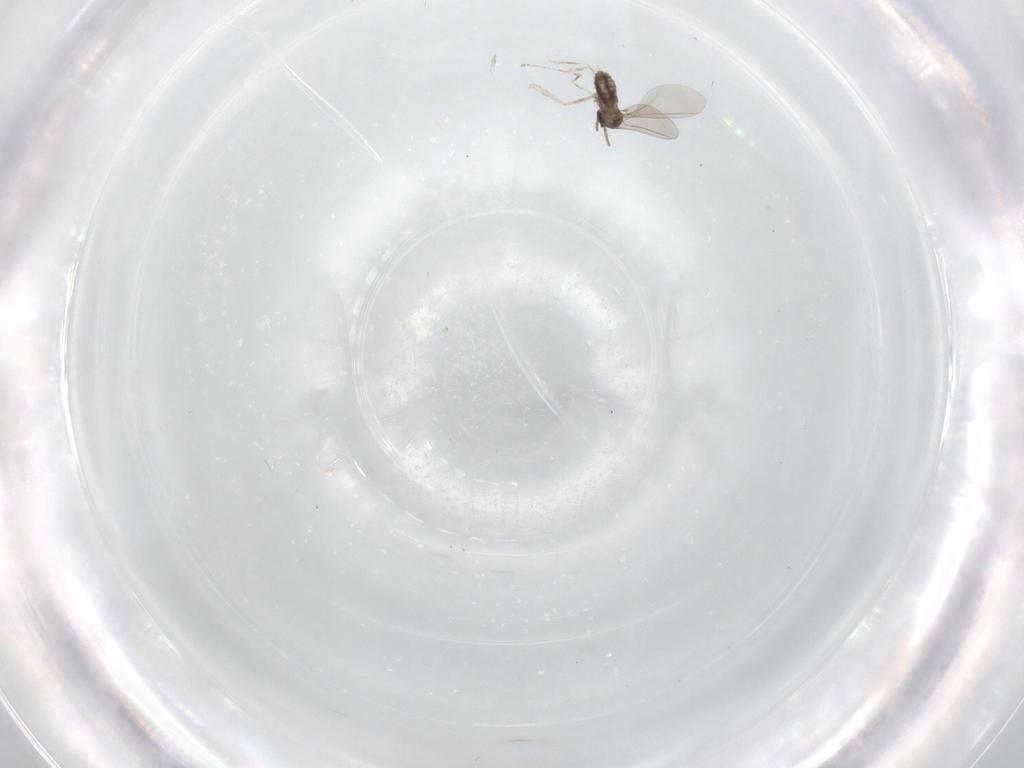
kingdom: Animalia
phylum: Arthropoda
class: Insecta
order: Diptera
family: Cecidomyiidae
